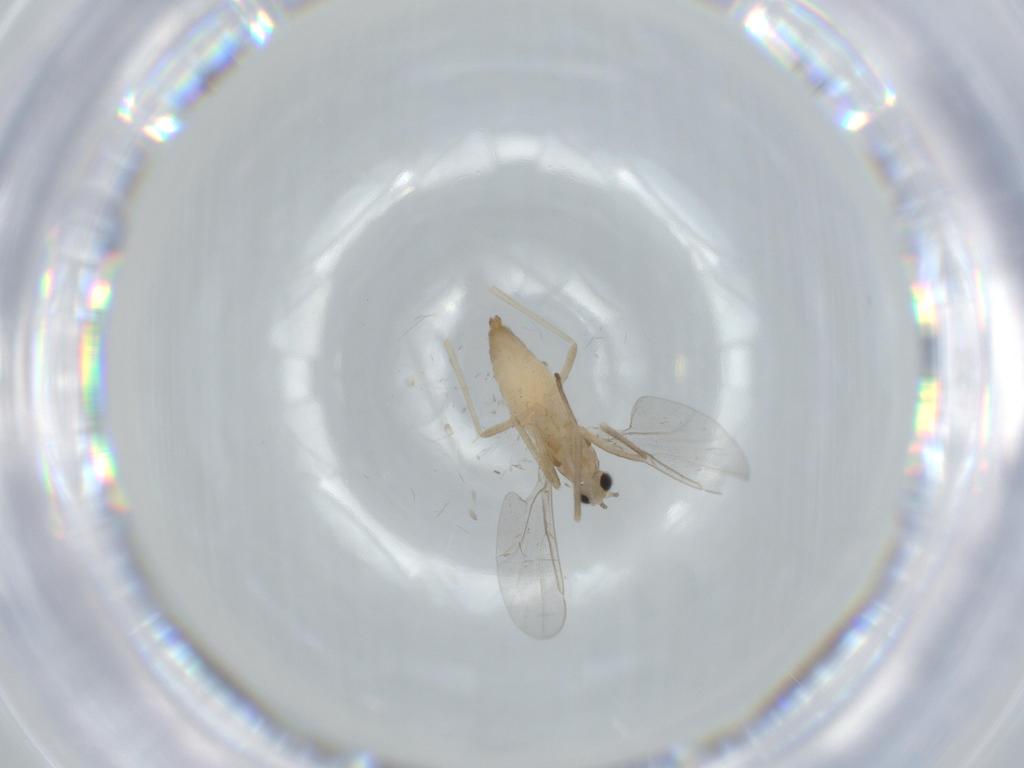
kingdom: Animalia
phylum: Arthropoda
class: Insecta
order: Diptera
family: Cecidomyiidae
